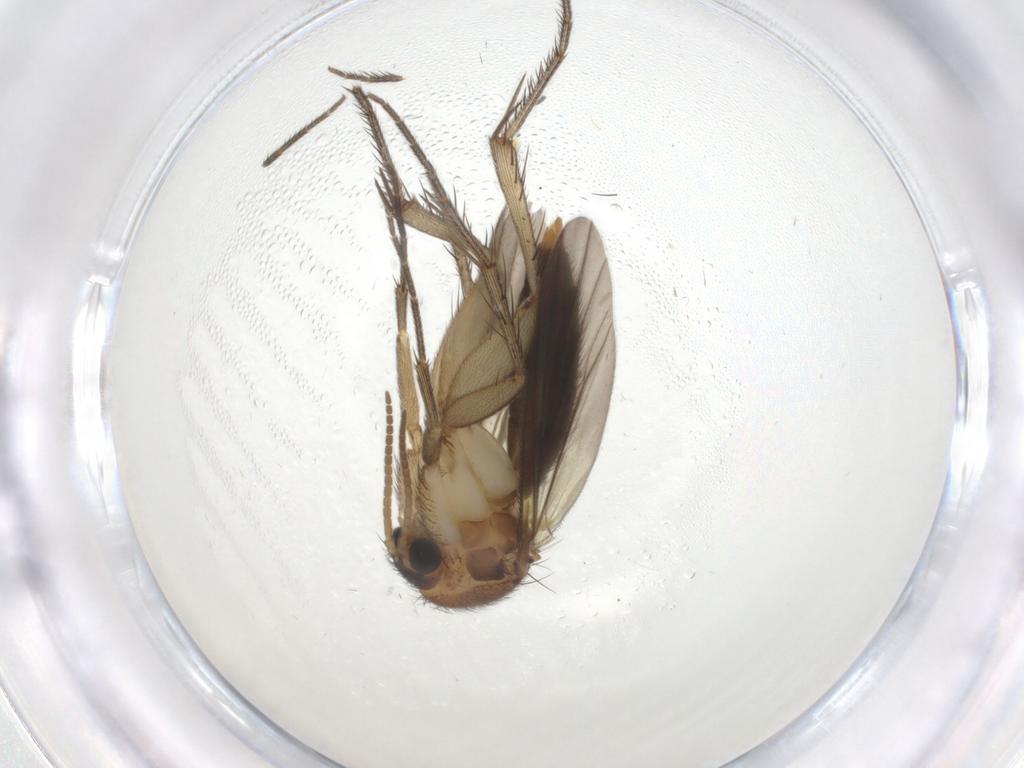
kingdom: Animalia
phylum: Arthropoda
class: Insecta
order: Diptera
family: Mycetophilidae
